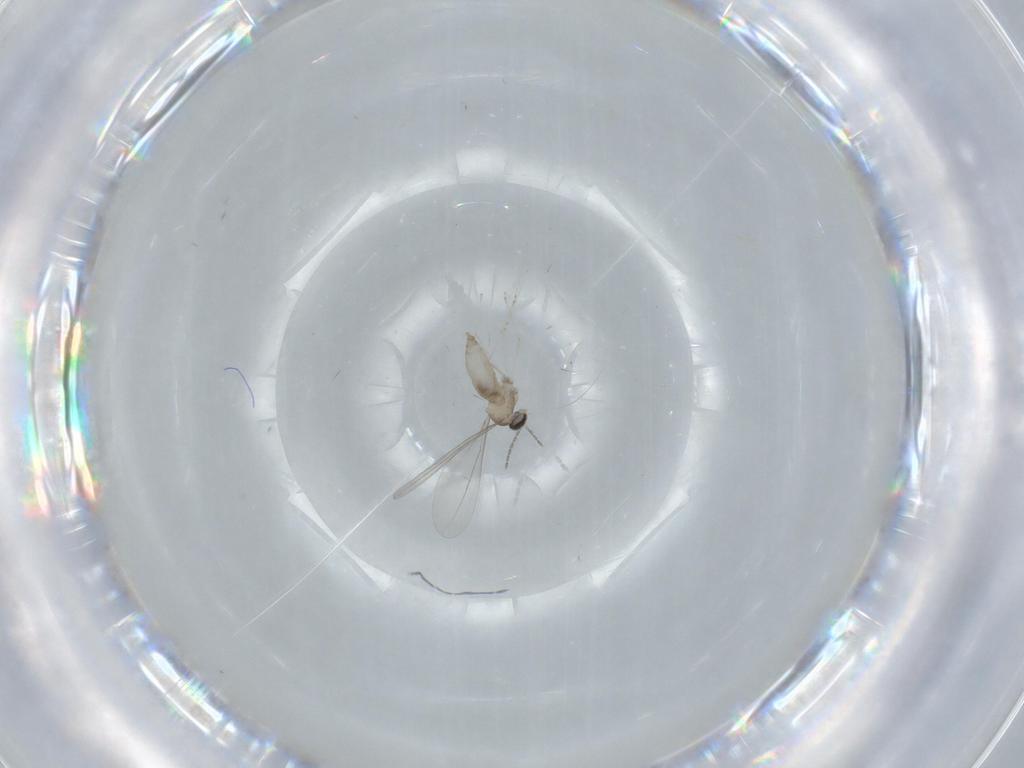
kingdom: Animalia
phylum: Arthropoda
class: Insecta
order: Diptera
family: Cecidomyiidae
